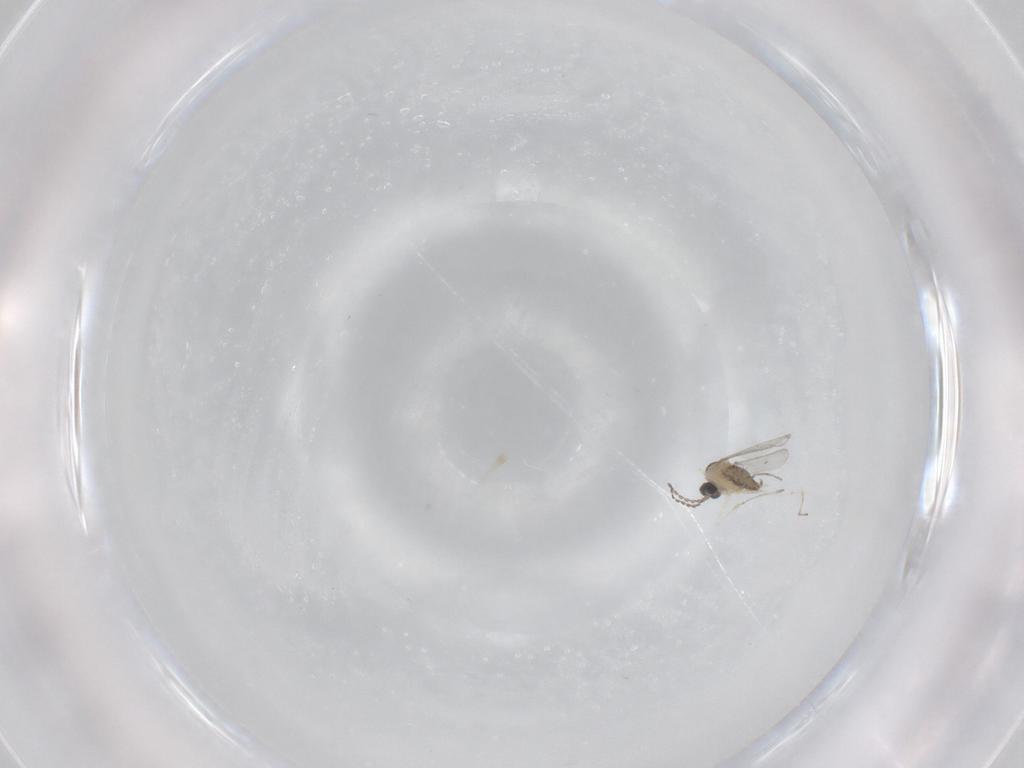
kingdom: Animalia
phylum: Arthropoda
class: Insecta
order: Diptera
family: Cecidomyiidae
